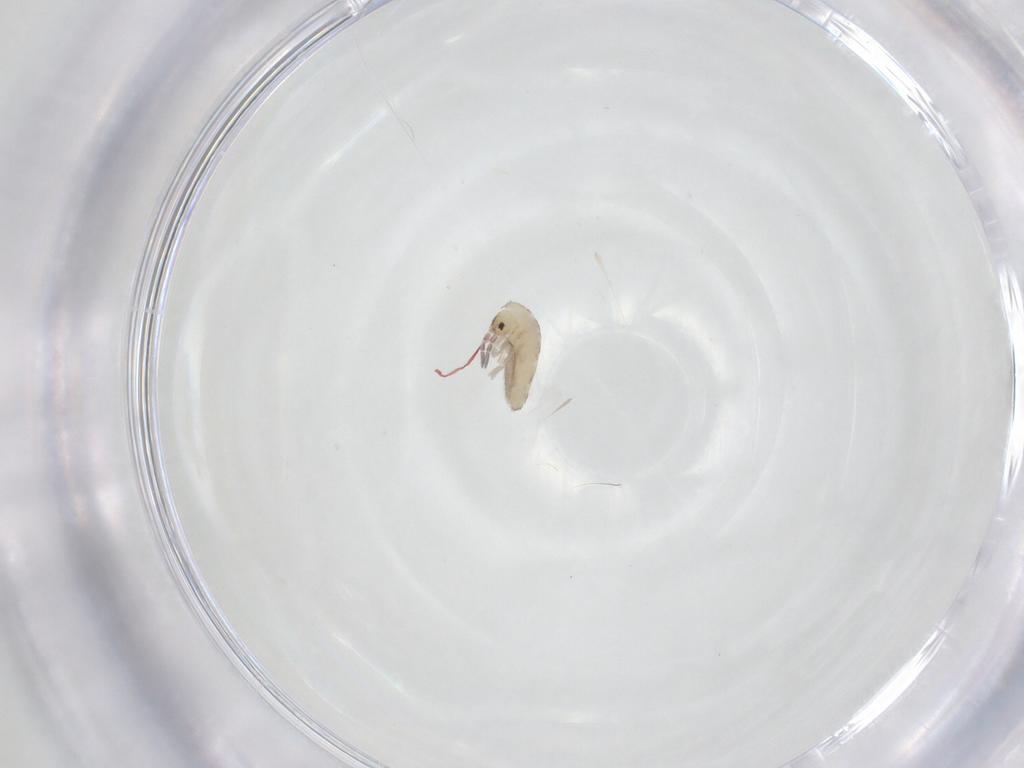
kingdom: Animalia
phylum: Arthropoda
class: Collembola
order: Entomobryomorpha
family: Entomobryidae
